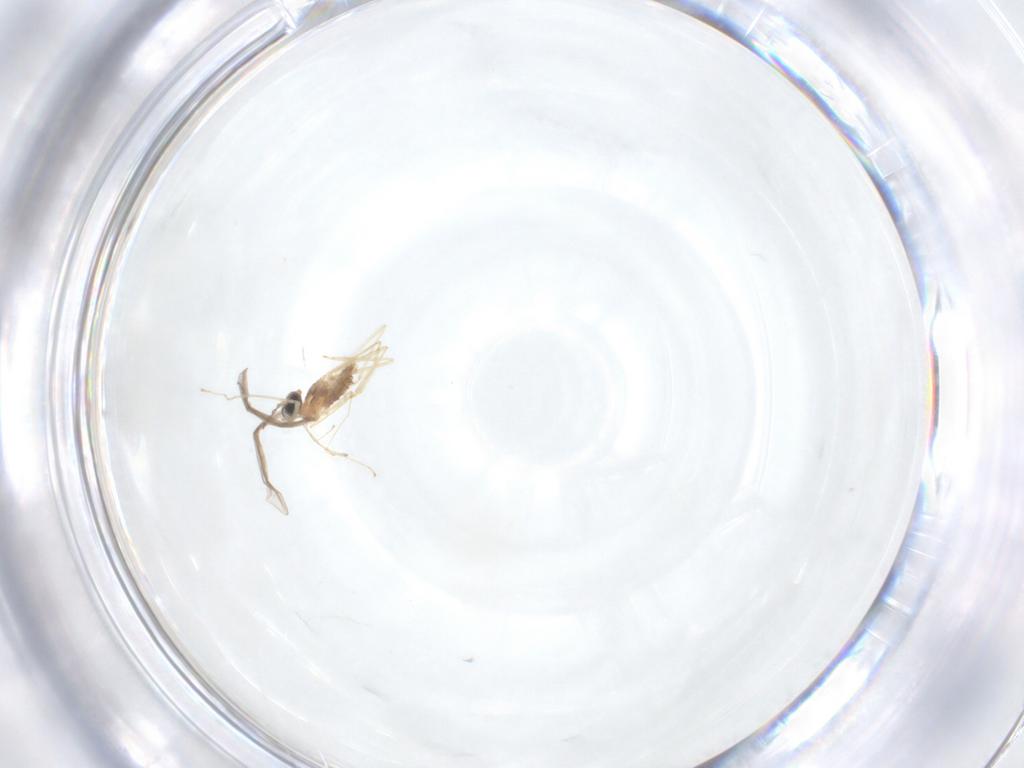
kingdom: Animalia
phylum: Arthropoda
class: Insecta
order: Diptera
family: Cecidomyiidae
